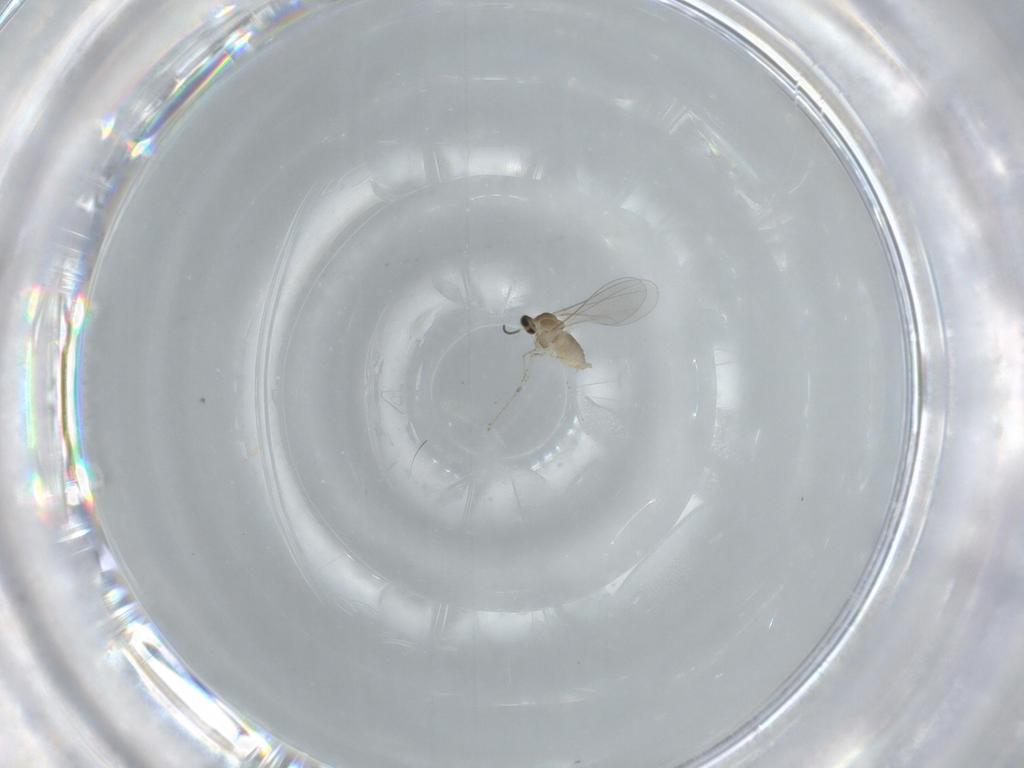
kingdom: Animalia
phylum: Arthropoda
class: Insecta
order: Diptera
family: Cecidomyiidae
